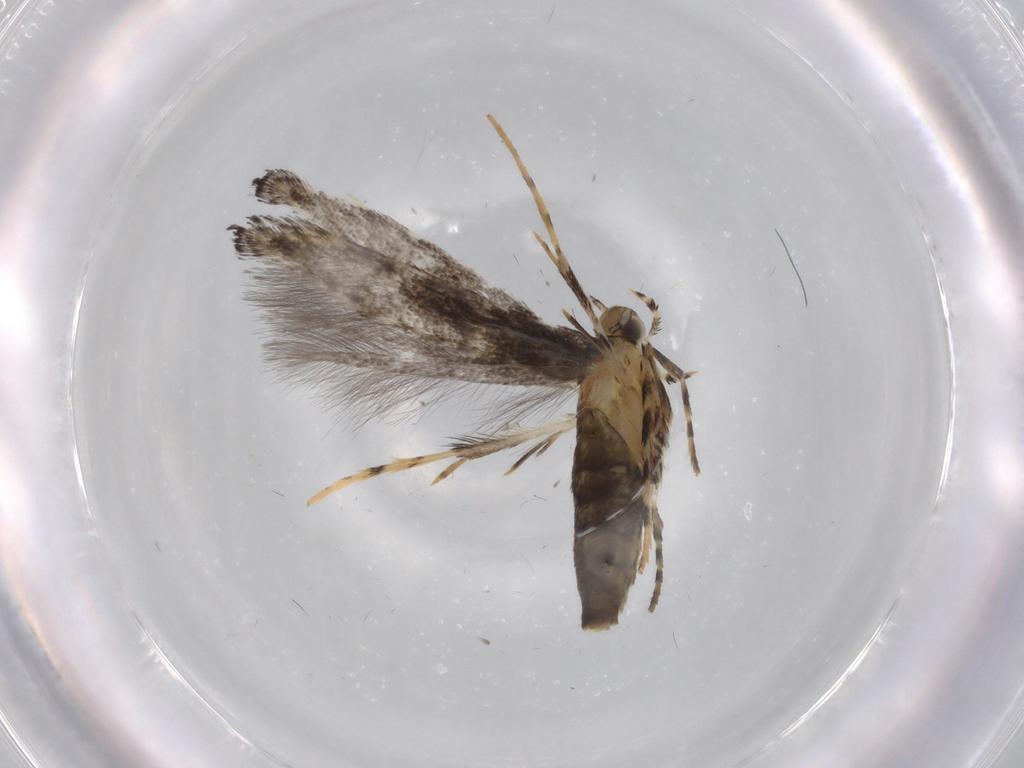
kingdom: Animalia
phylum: Arthropoda
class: Insecta
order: Lepidoptera
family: Gracillariidae
